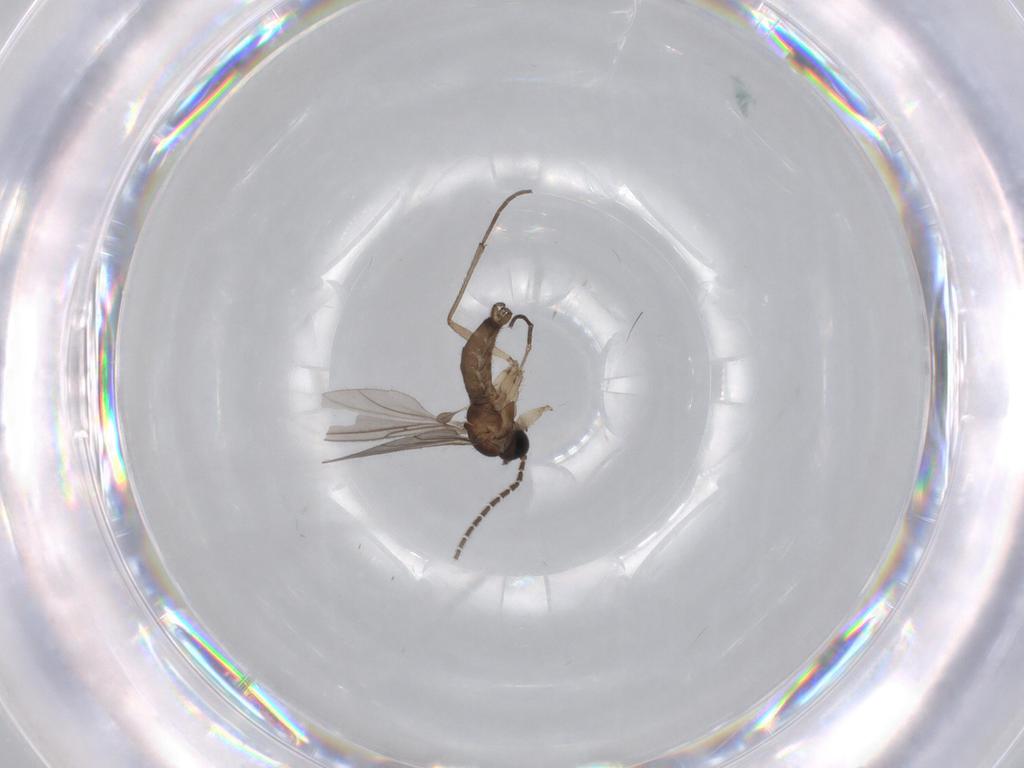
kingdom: Animalia
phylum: Arthropoda
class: Insecta
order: Diptera
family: Sciaridae
